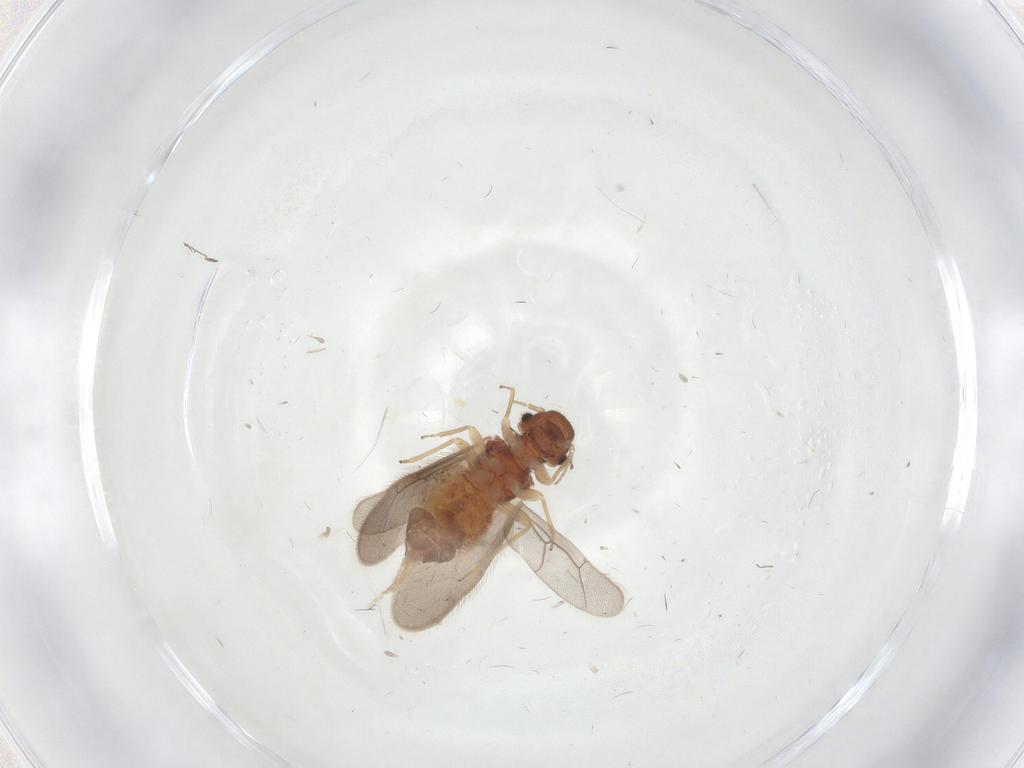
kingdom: Animalia
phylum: Arthropoda
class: Insecta
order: Psocodea
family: Archipsocidae
